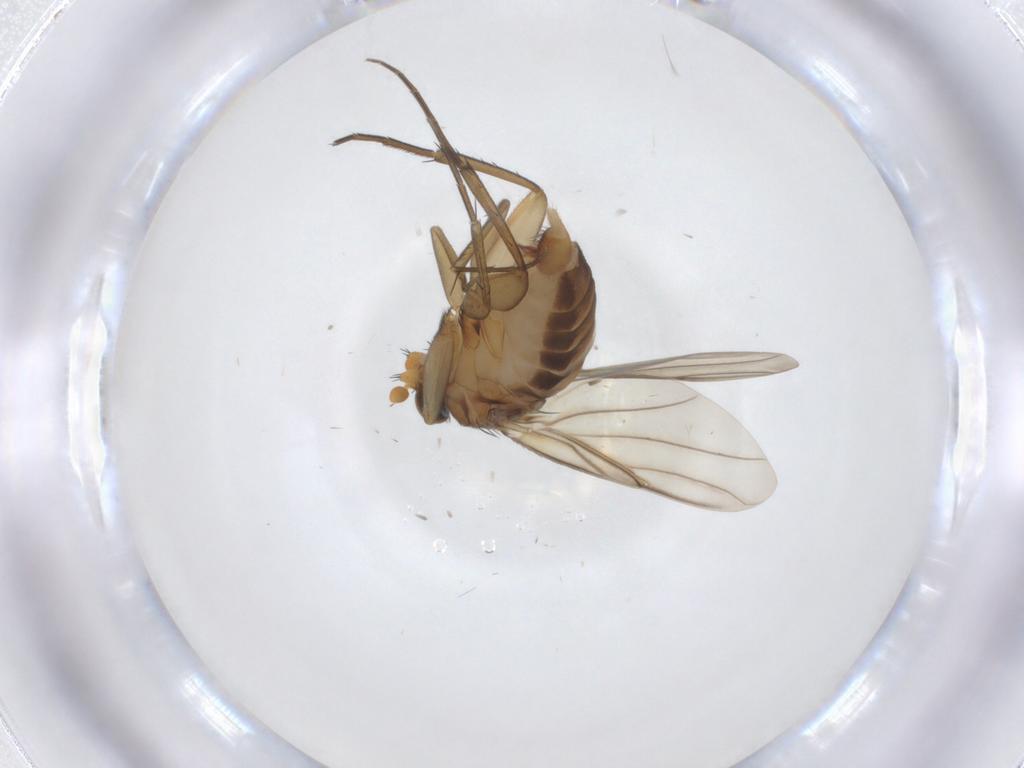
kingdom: Animalia
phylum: Arthropoda
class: Insecta
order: Diptera
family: Phoridae
